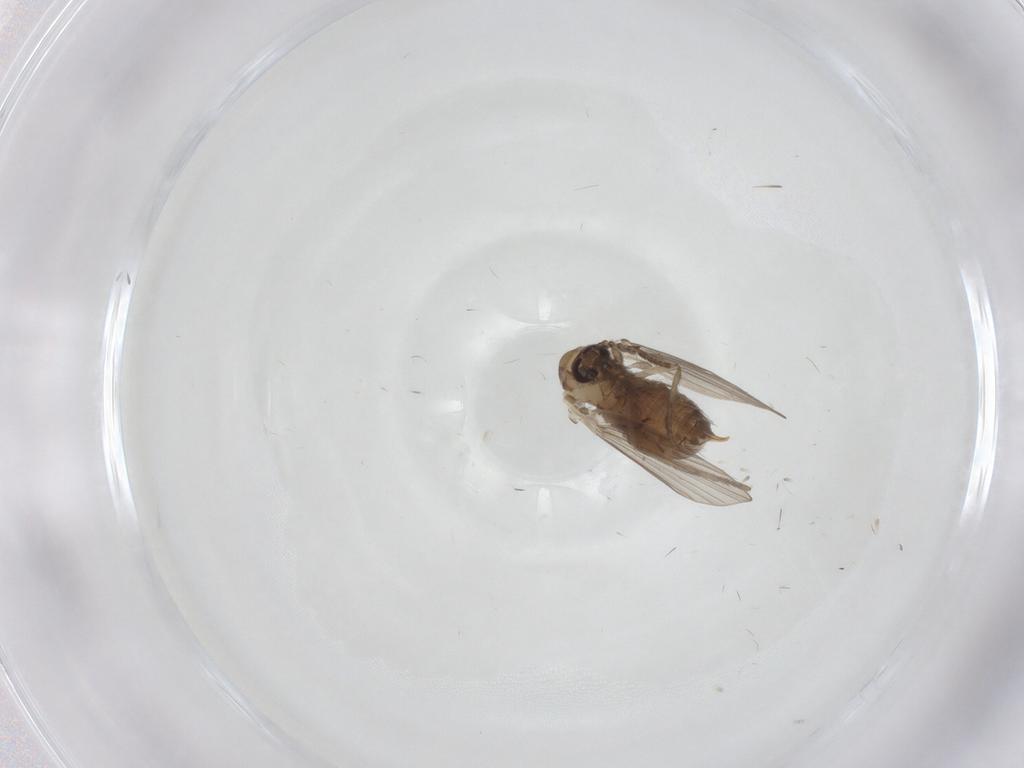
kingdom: Animalia
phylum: Arthropoda
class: Insecta
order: Diptera
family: Psychodidae
